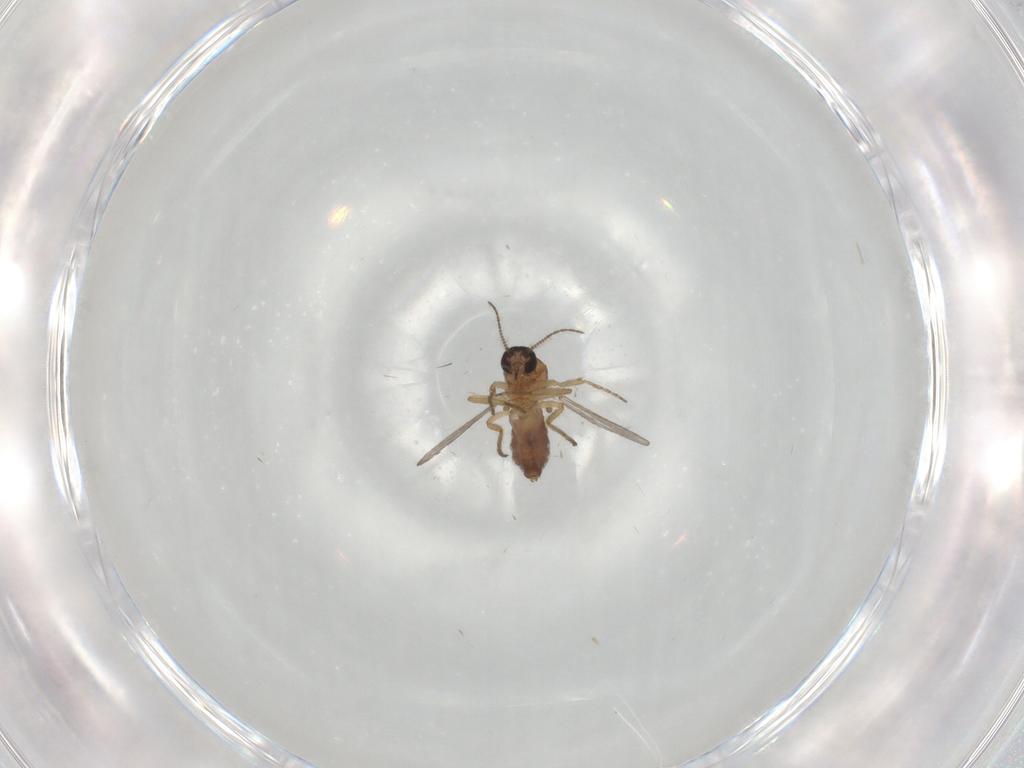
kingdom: Animalia
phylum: Arthropoda
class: Insecta
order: Diptera
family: Ceratopogonidae
